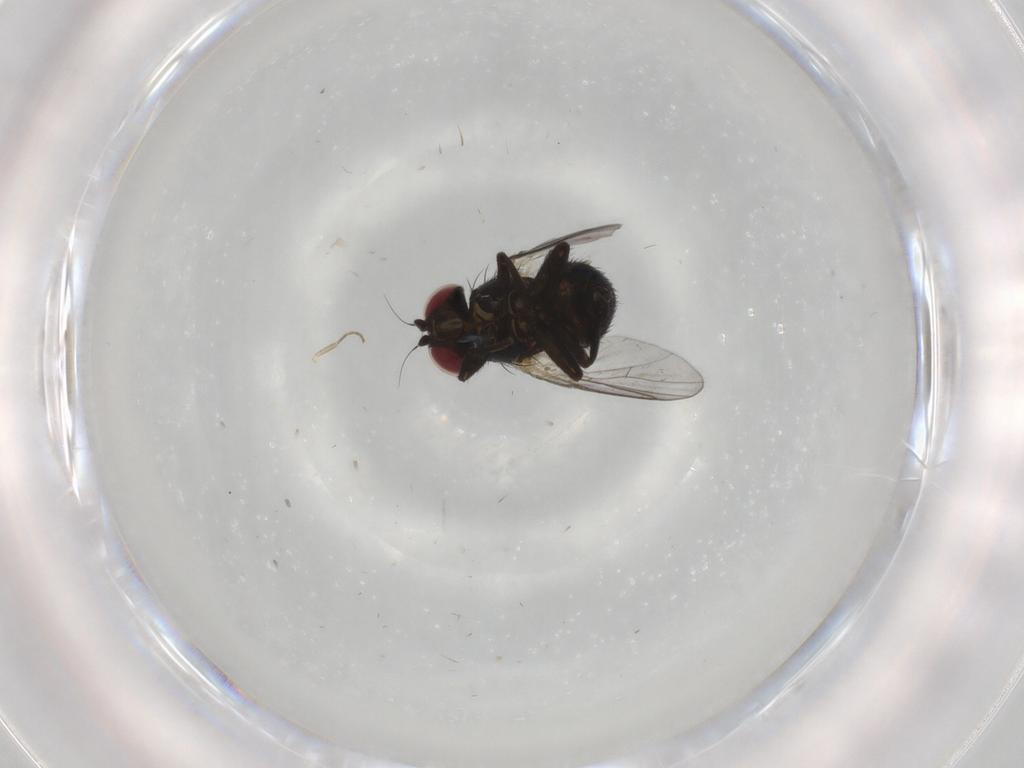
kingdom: Animalia
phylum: Arthropoda
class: Insecta
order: Diptera
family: Agromyzidae
